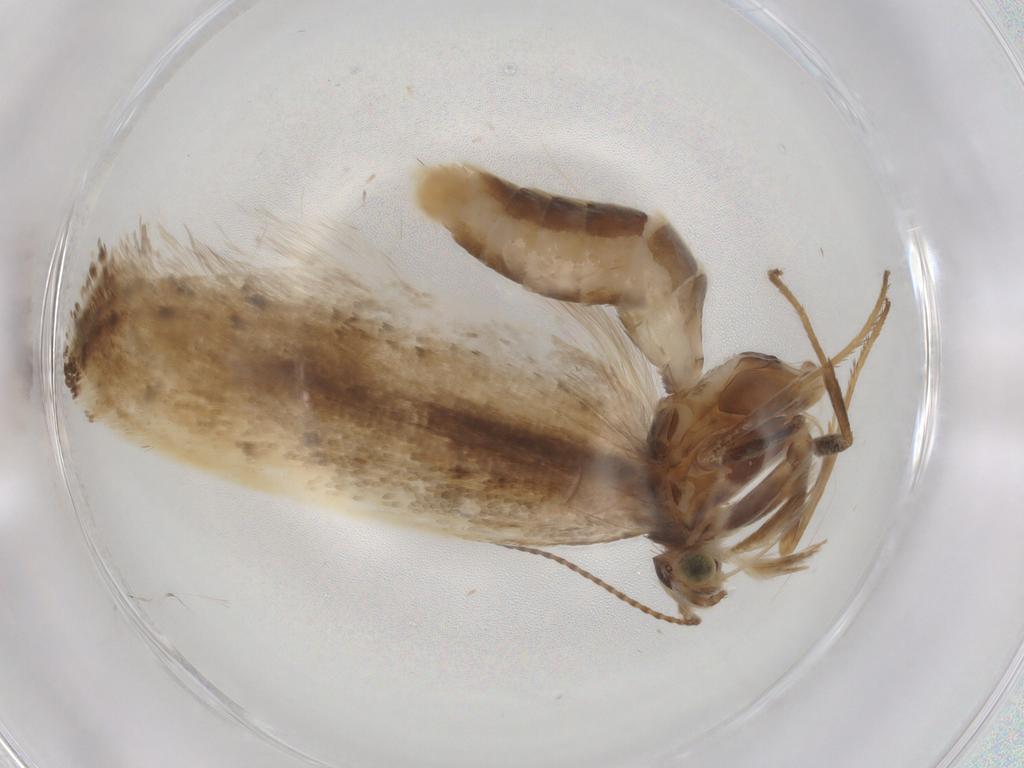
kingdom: Animalia
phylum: Arthropoda
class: Insecta
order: Lepidoptera
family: Plutellidae
